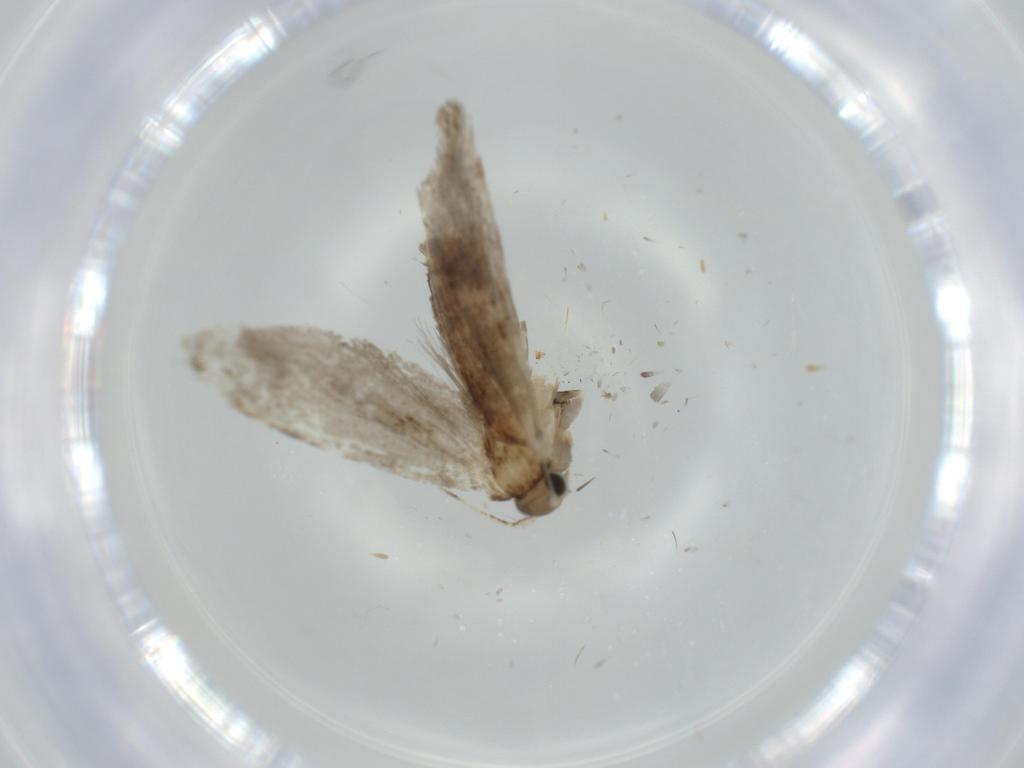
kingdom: Animalia
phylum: Arthropoda
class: Insecta
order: Lepidoptera
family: Tineidae
